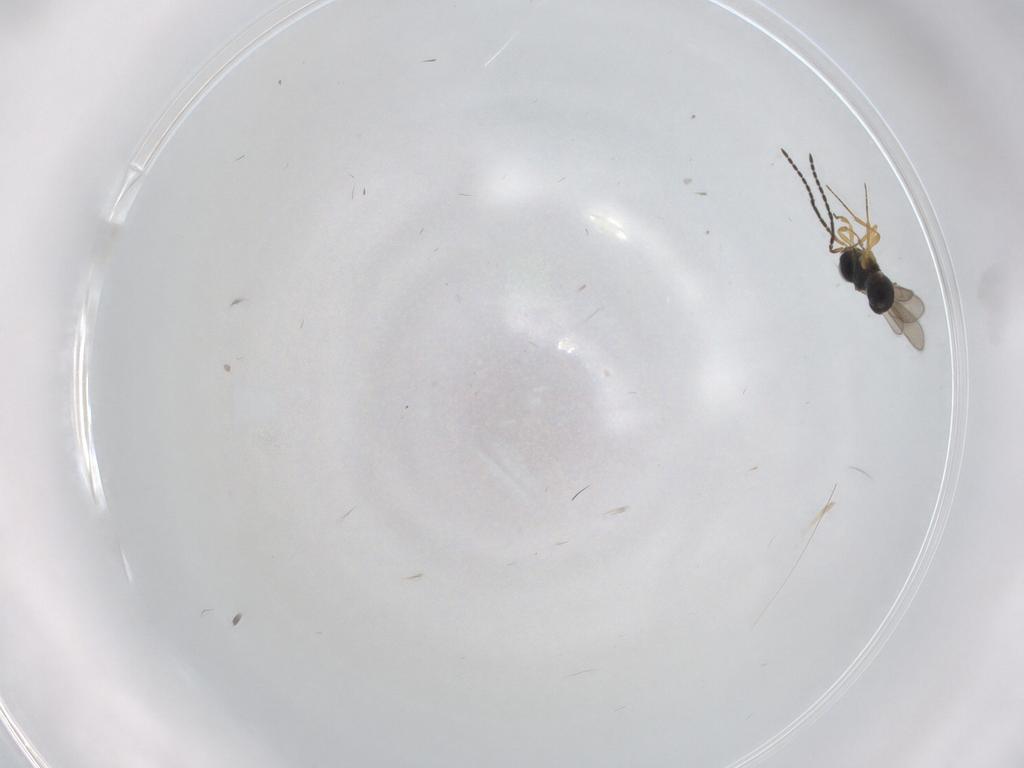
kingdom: Animalia
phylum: Arthropoda
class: Insecta
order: Hymenoptera
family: Scelionidae
